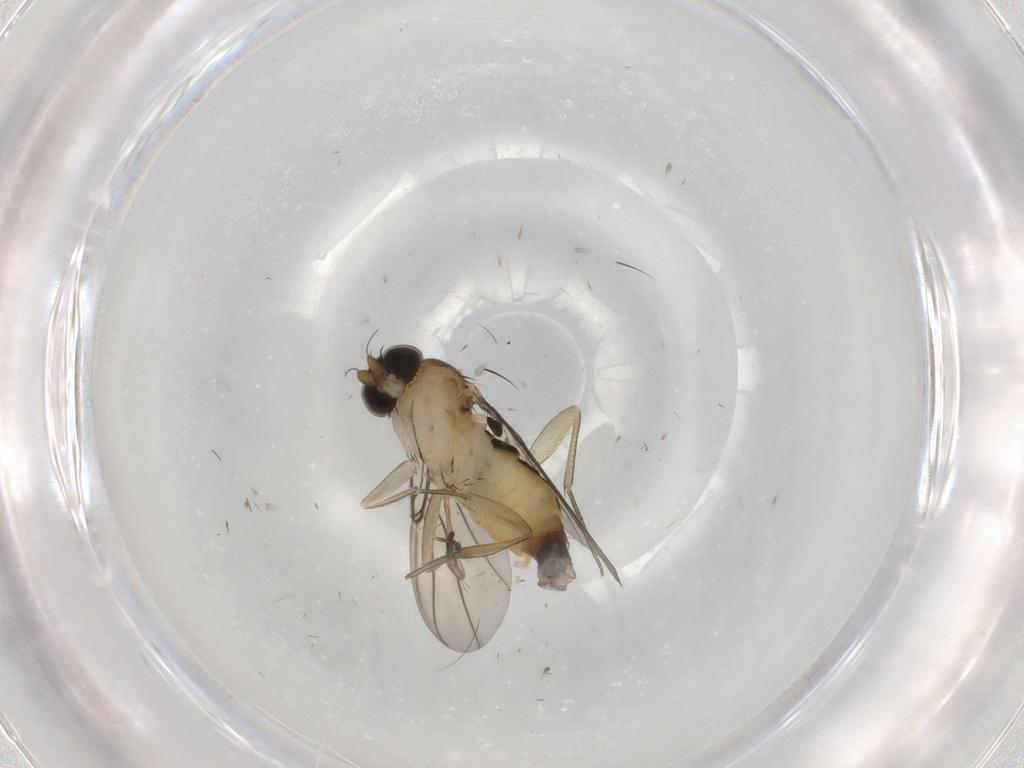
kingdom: Animalia
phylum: Arthropoda
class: Insecta
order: Diptera
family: Phoridae
